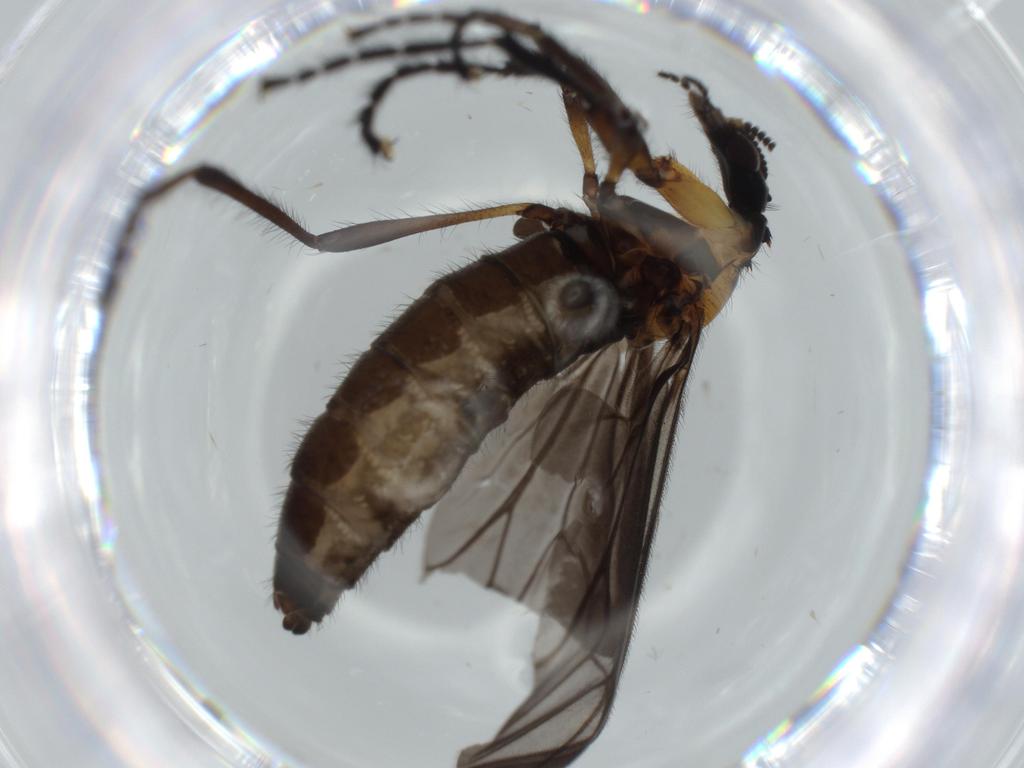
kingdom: Animalia
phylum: Arthropoda
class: Insecta
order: Diptera
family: Bibionidae
